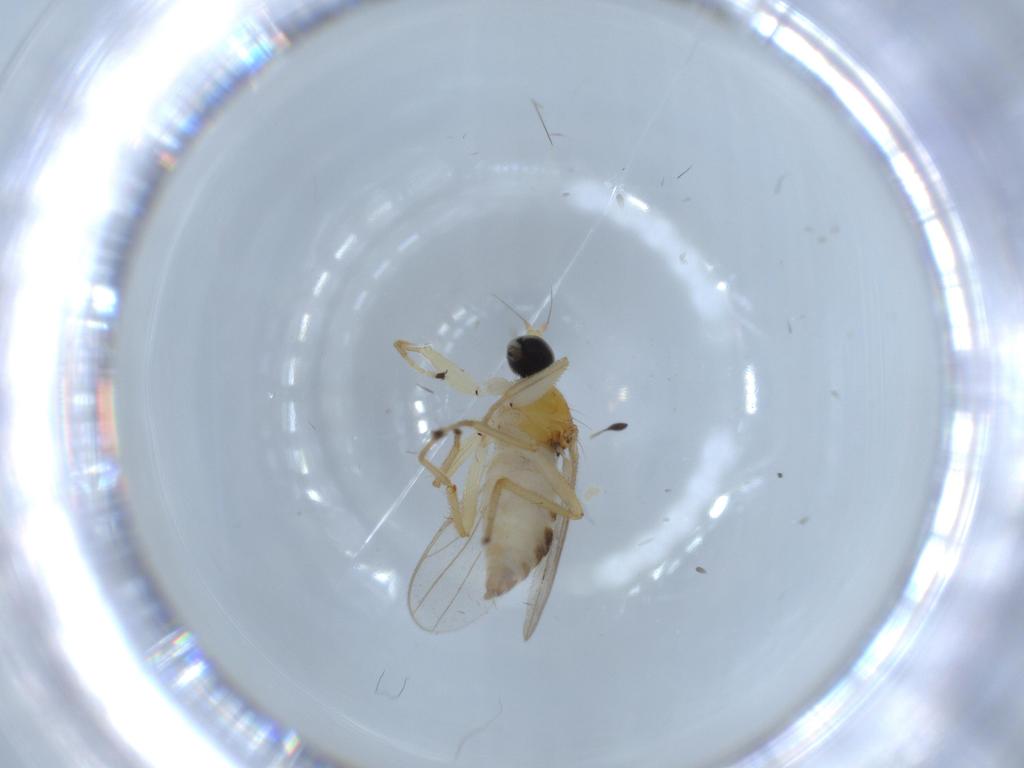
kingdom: Animalia
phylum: Arthropoda
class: Insecta
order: Diptera
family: Hybotidae
